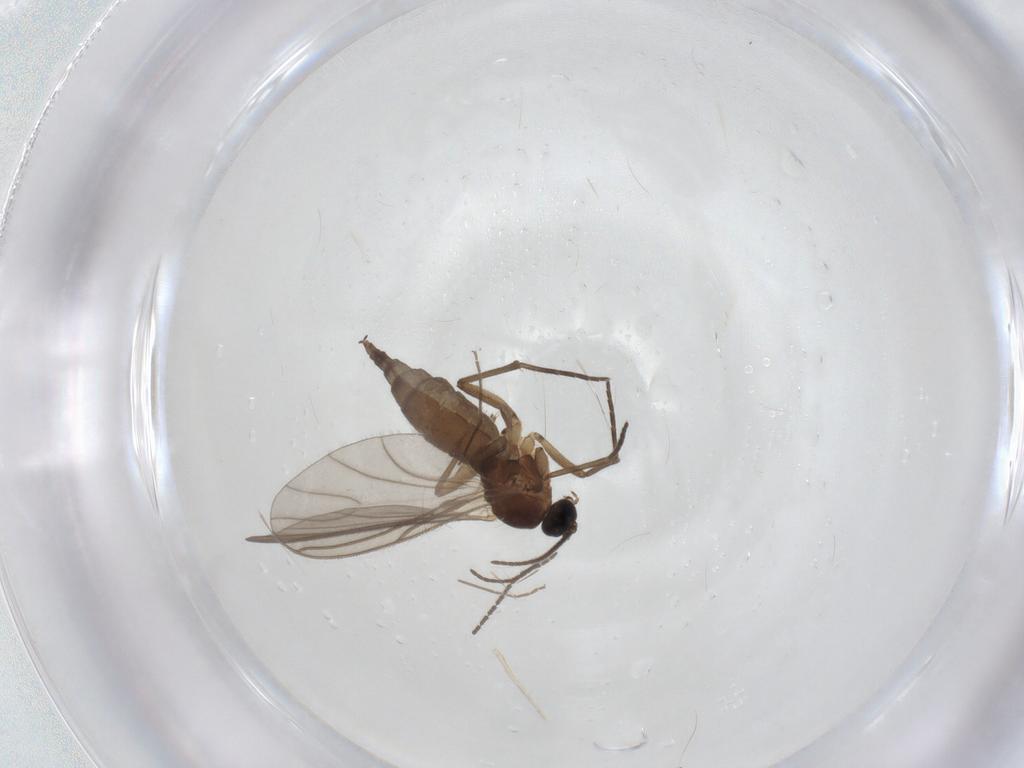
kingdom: Animalia
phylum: Arthropoda
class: Insecta
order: Diptera
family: Sciaridae
